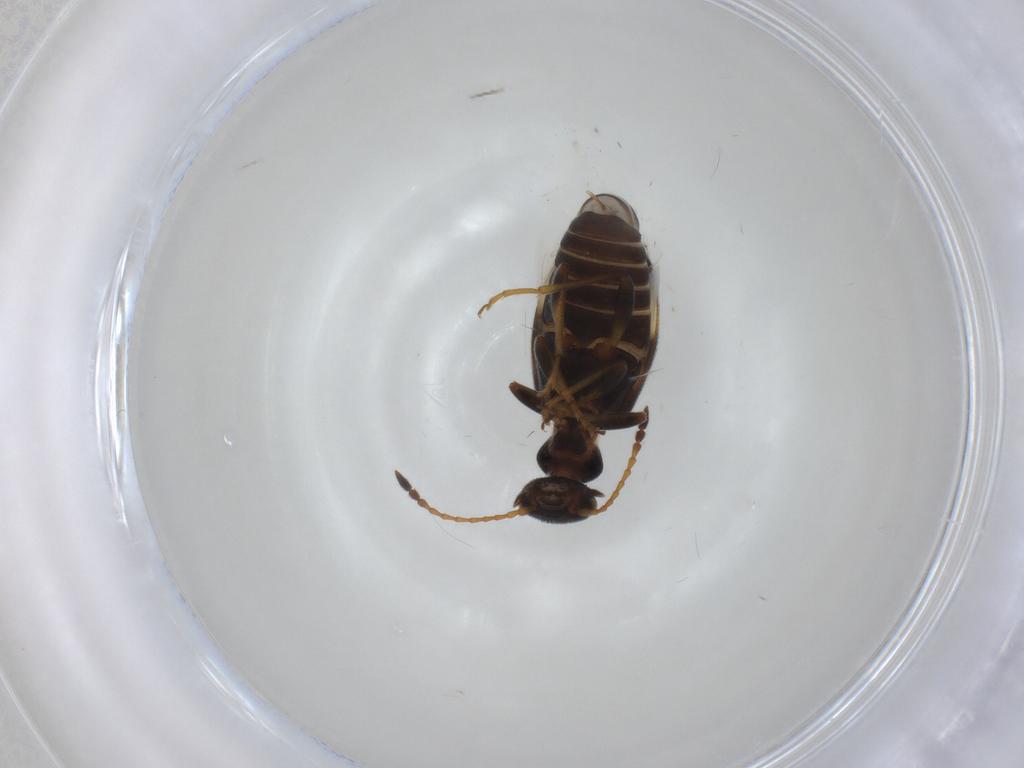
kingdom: Animalia
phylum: Arthropoda
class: Insecta
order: Coleoptera
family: Anthicidae
